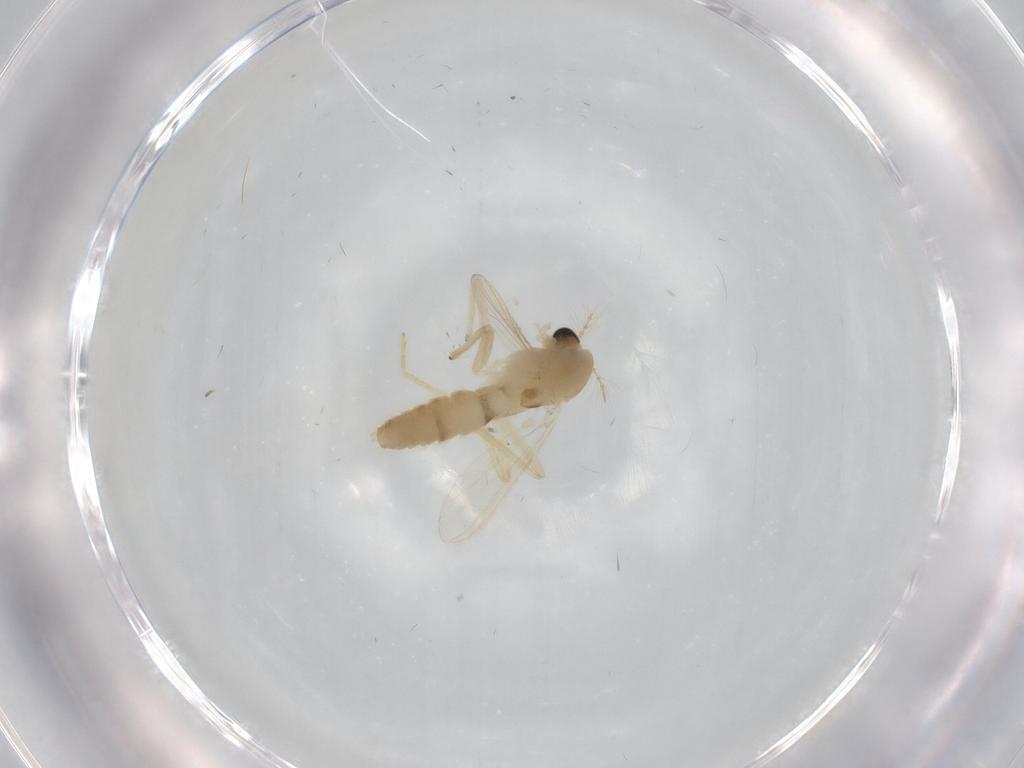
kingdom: Animalia
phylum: Arthropoda
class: Insecta
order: Diptera
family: Chironomidae
